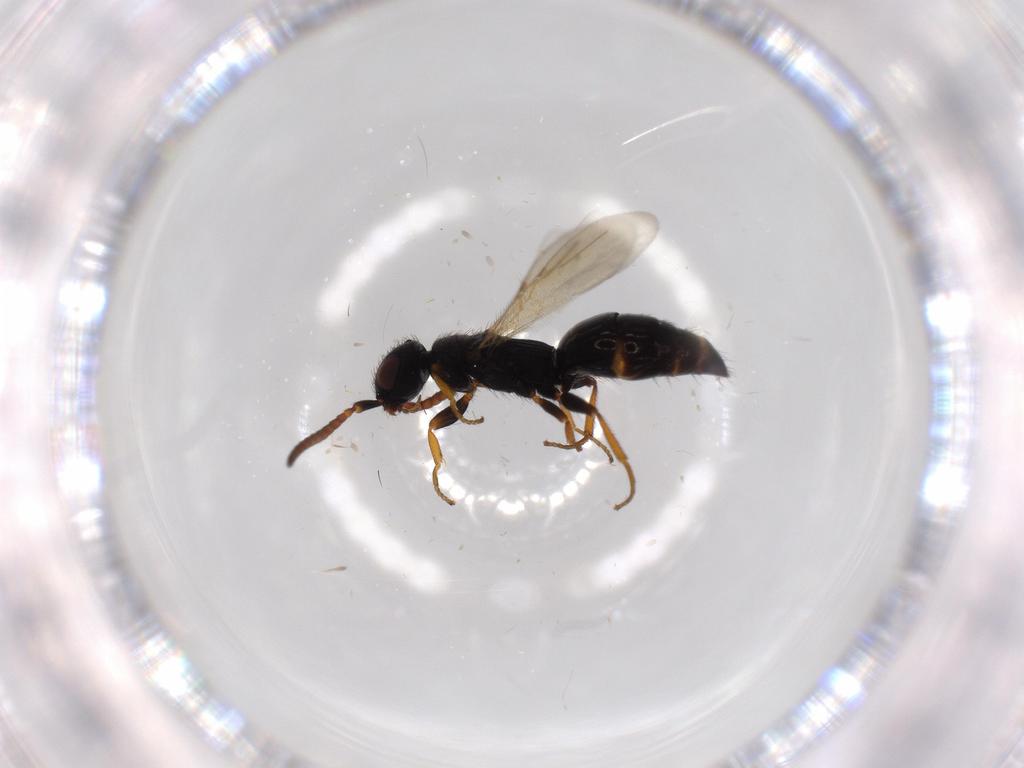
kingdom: Animalia
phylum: Arthropoda
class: Insecta
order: Hymenoptera
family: Bethylidae
